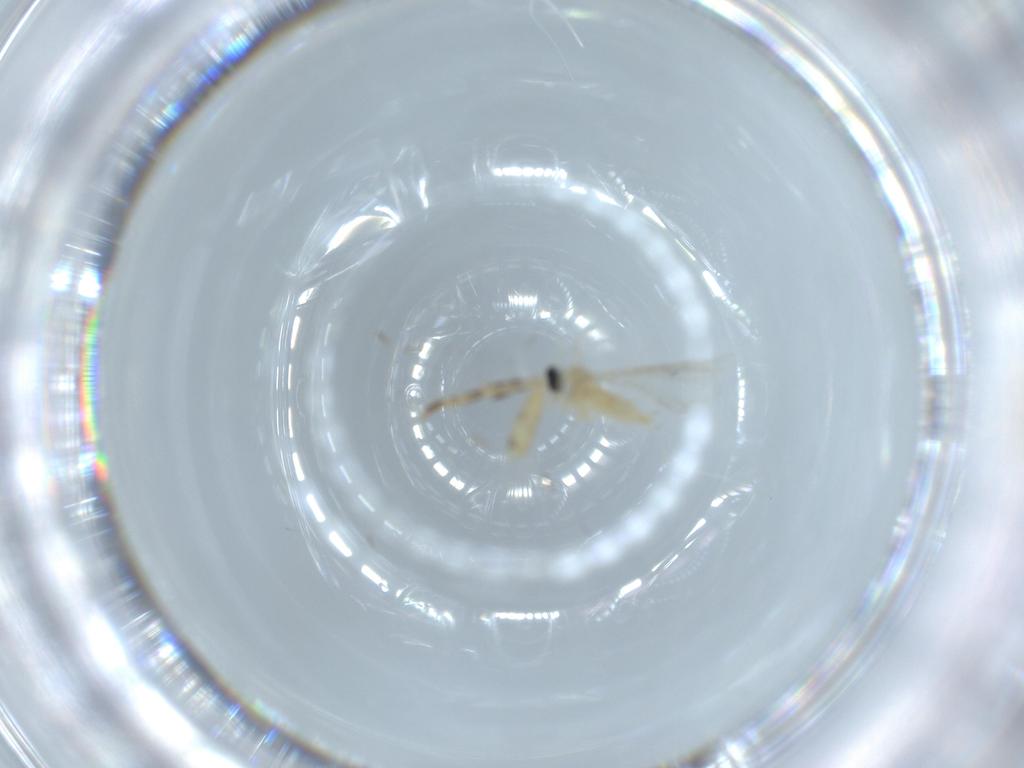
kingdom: Animalia
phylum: Arthropoda
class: Insecta
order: Diptera
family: Cecidomyiidae
